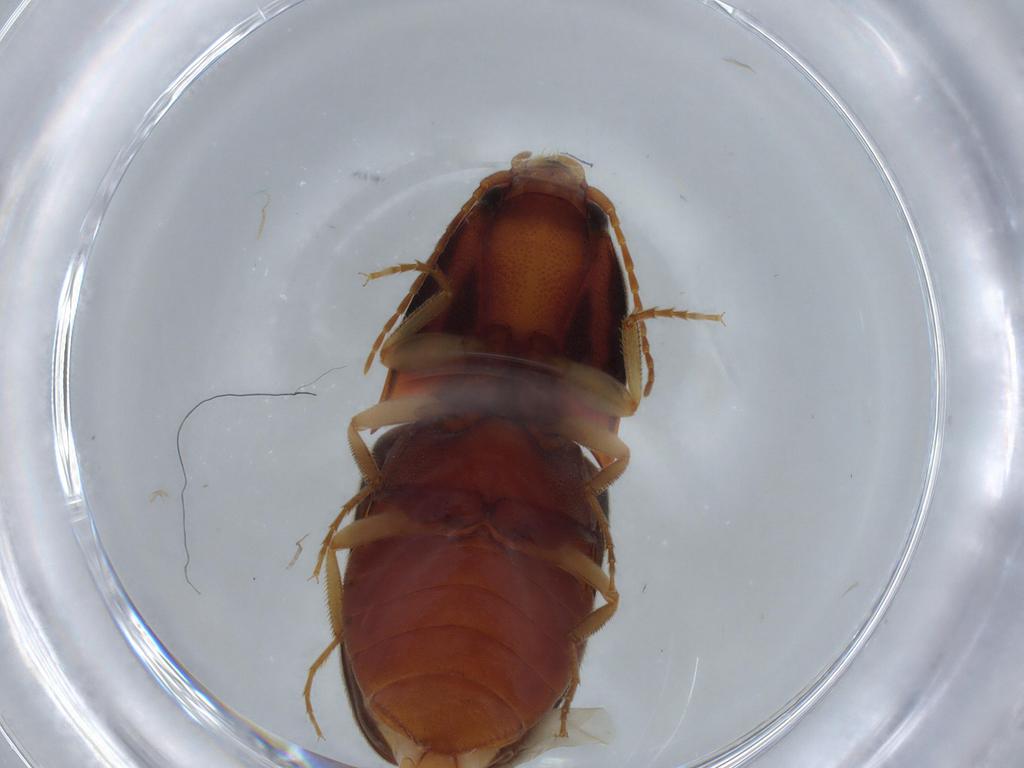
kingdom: Animalia
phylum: Arthropoda
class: Insecta
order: Coleoptera
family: Elateridae
